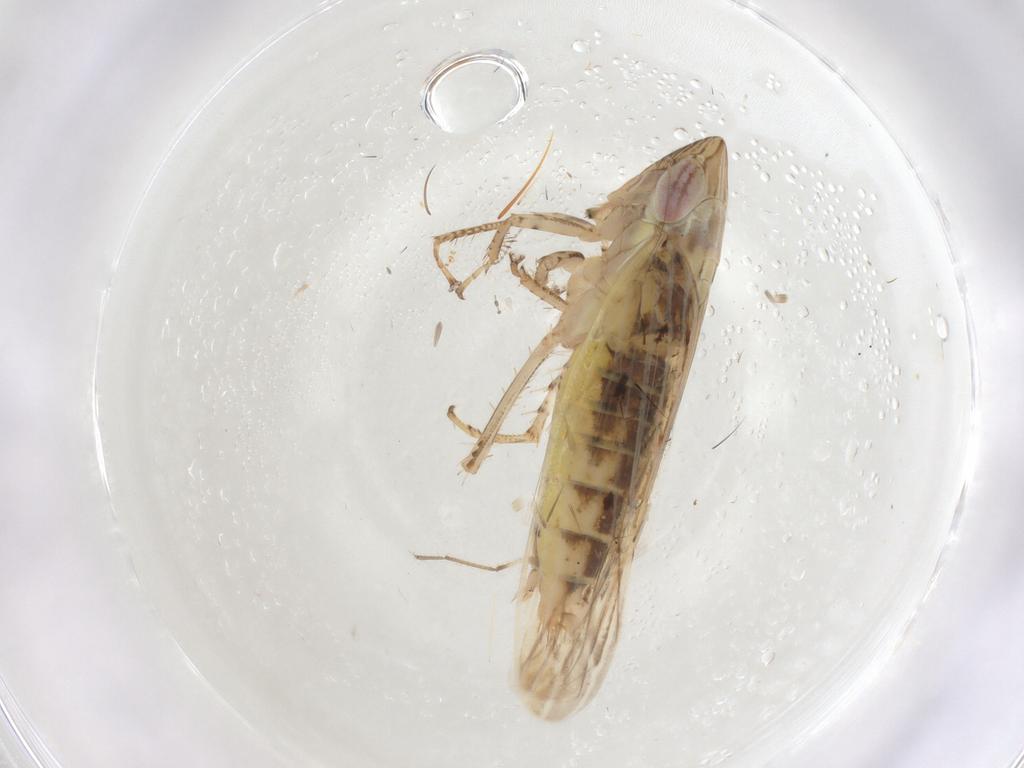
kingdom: Animalia
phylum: Arthropoda
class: Insecta
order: Hemiptera
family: Cicadellidae
